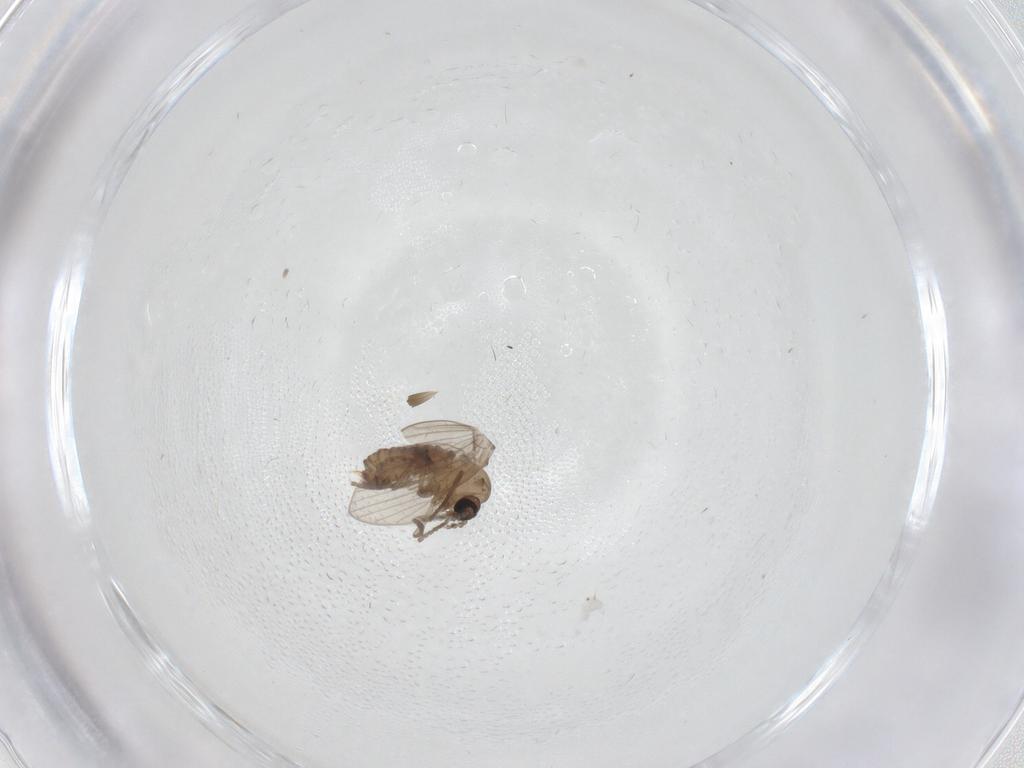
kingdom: Animalia
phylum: Arthropoda
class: Insecta
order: Diptera
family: Psychodidae
